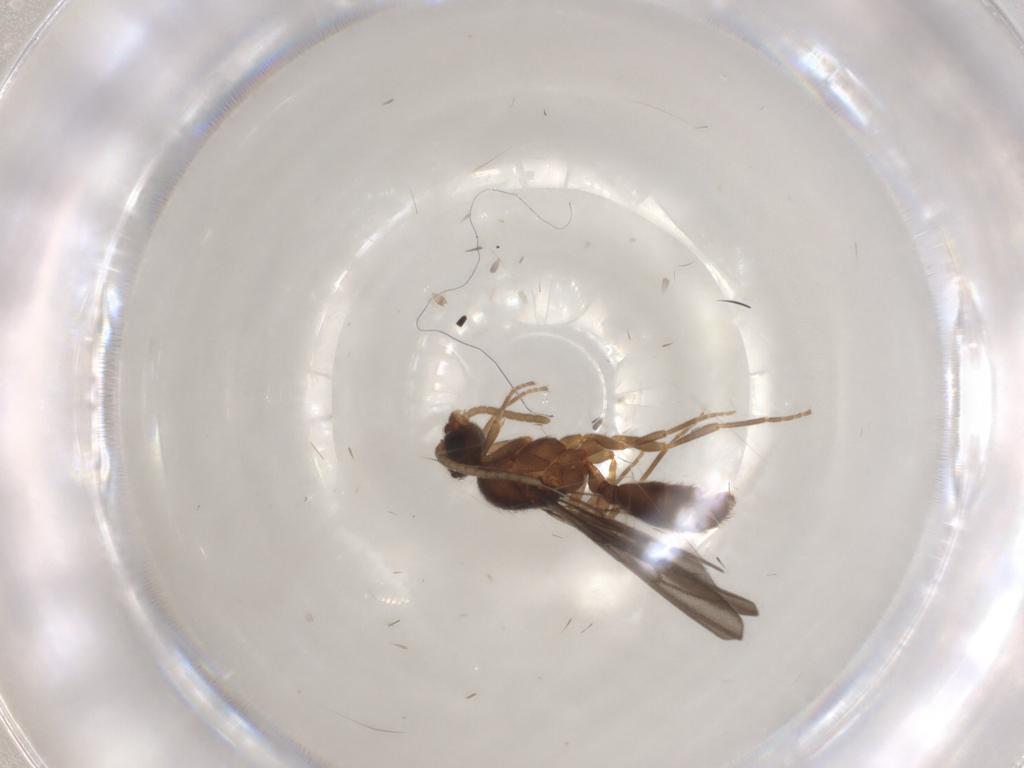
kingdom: Animalia
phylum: Arthropoda
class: Insecta
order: Hymenoptera
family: Formicidae
